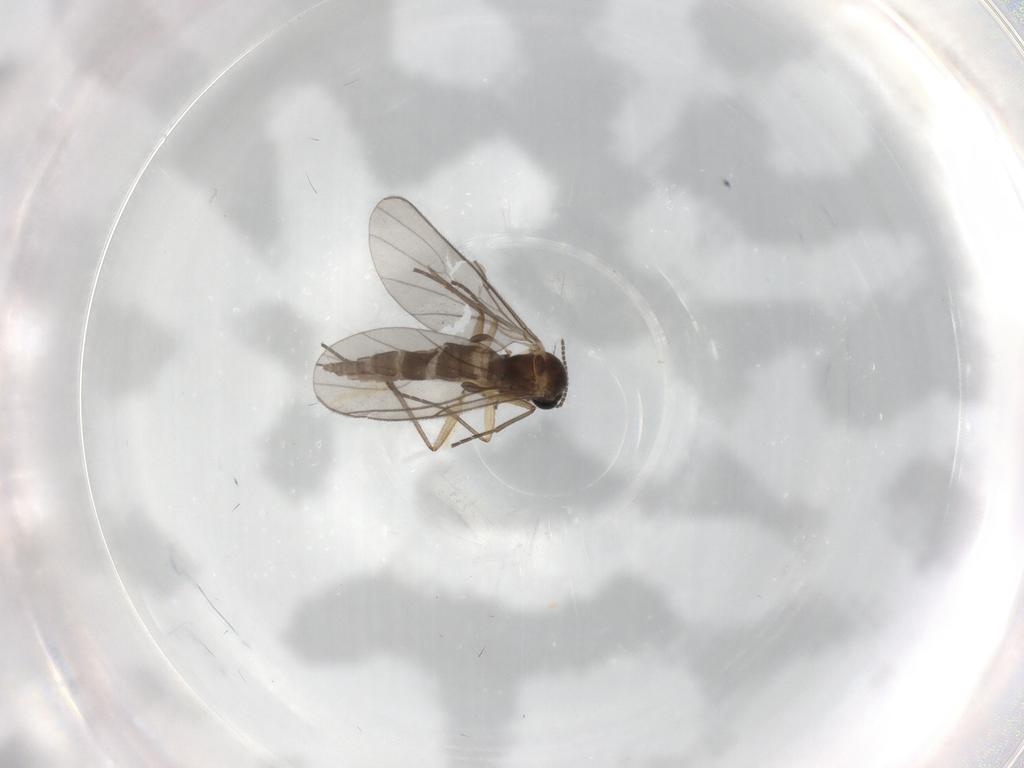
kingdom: Animalia
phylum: Arthropoda
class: Insecta
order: Diptera
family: Sciaridae
